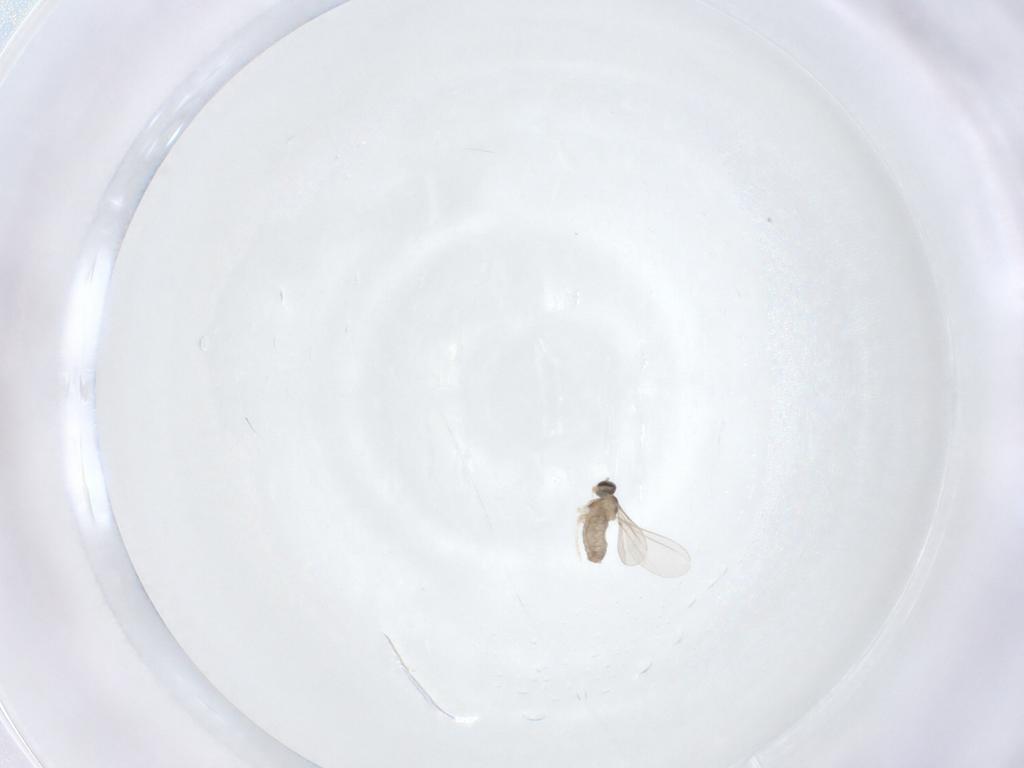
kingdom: Animalia
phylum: Arthropoda
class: Insecta
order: Diptera
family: Cecidomyiidae
